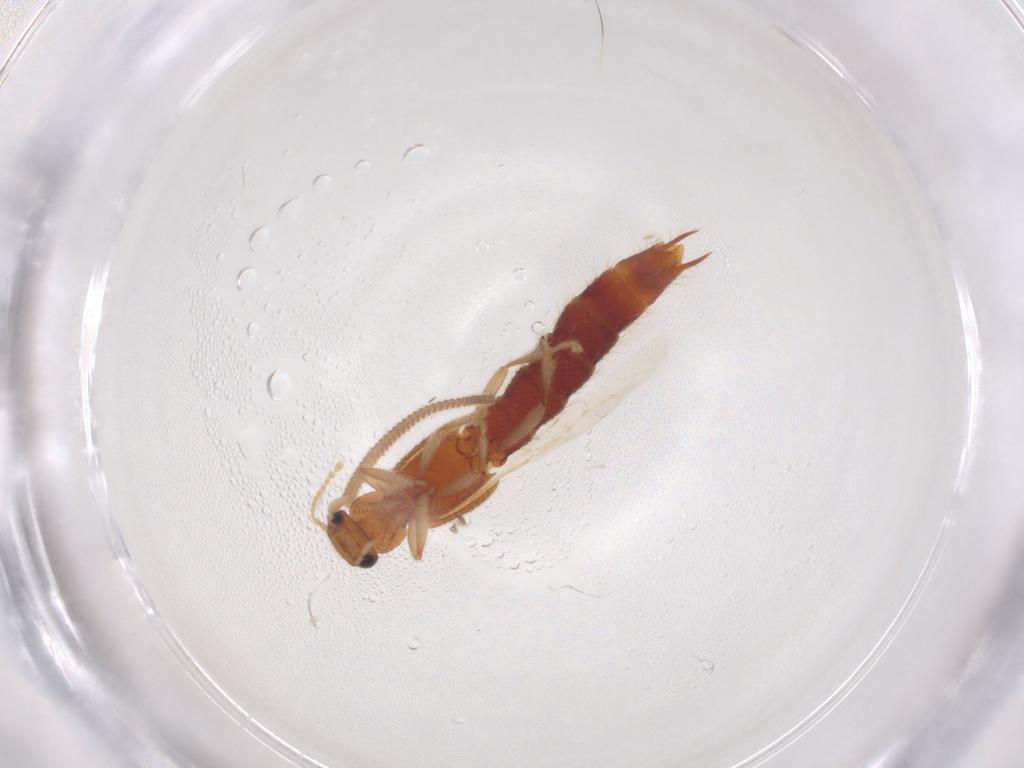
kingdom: Animalia
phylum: Arthropoda
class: Insecta
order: Coleoptera
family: Staphylinidae
